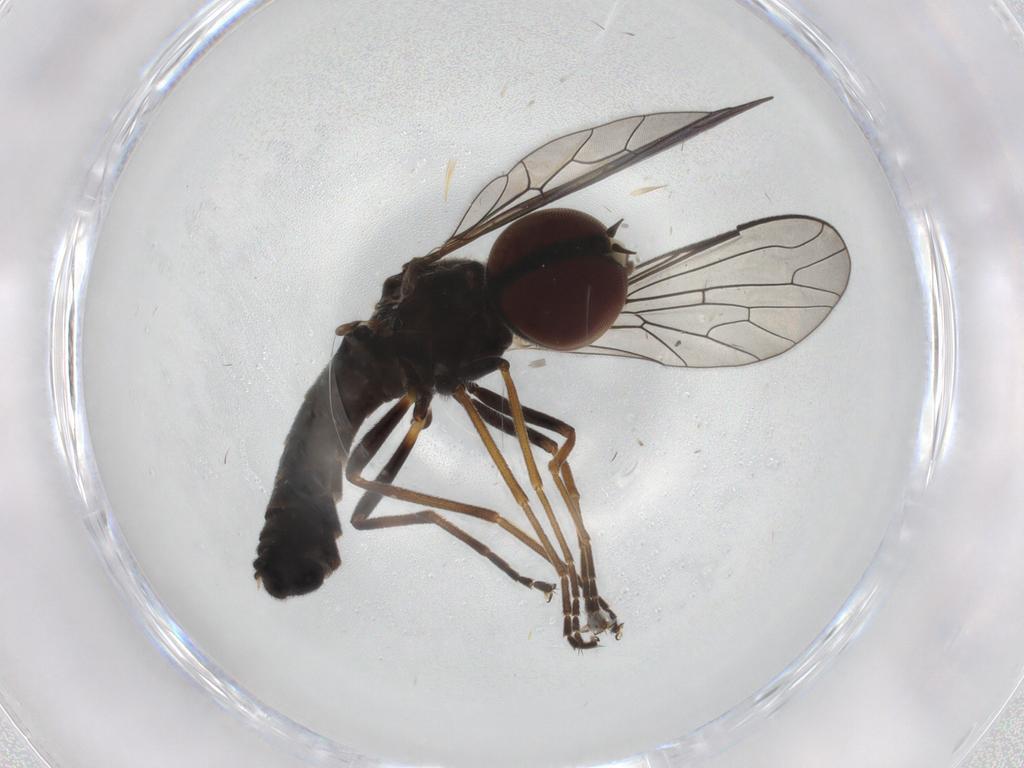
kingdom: Animalia
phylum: Arthropoda
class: Insecta
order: Diptera
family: Bombyliidae
